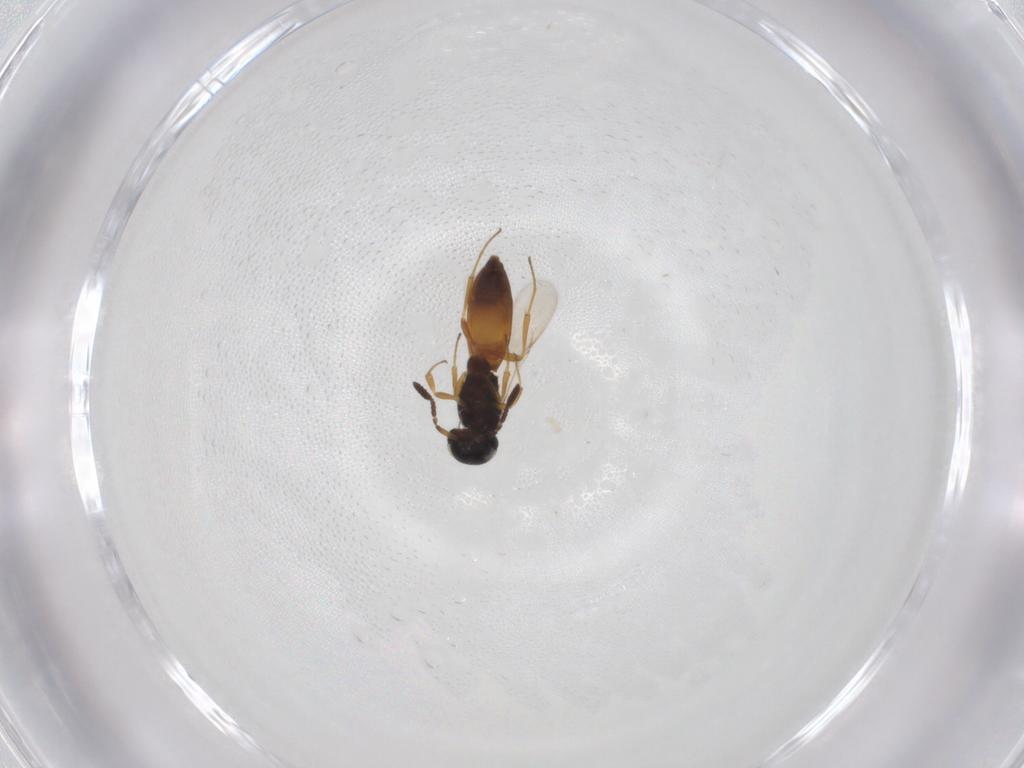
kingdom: Animalia
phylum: Arthropoda
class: Insecta
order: Hymenoptera
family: Scelionidae
